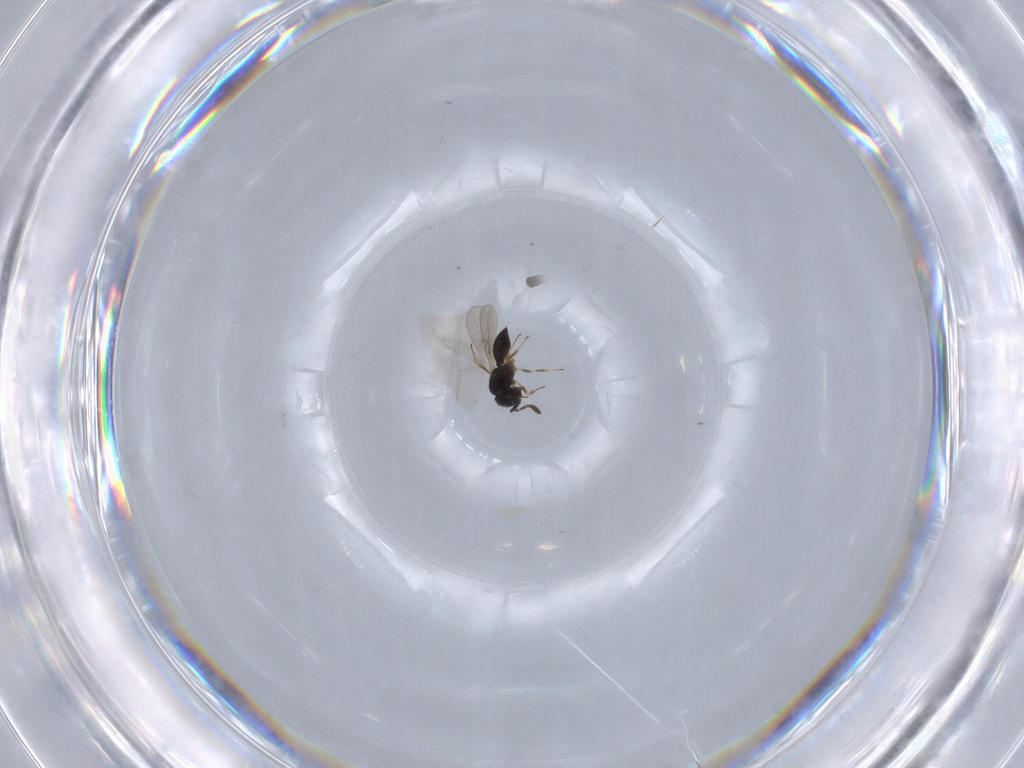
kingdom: Animalia
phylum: Arthropoda
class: Insecta
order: Hymenoptera
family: Scelionidae
